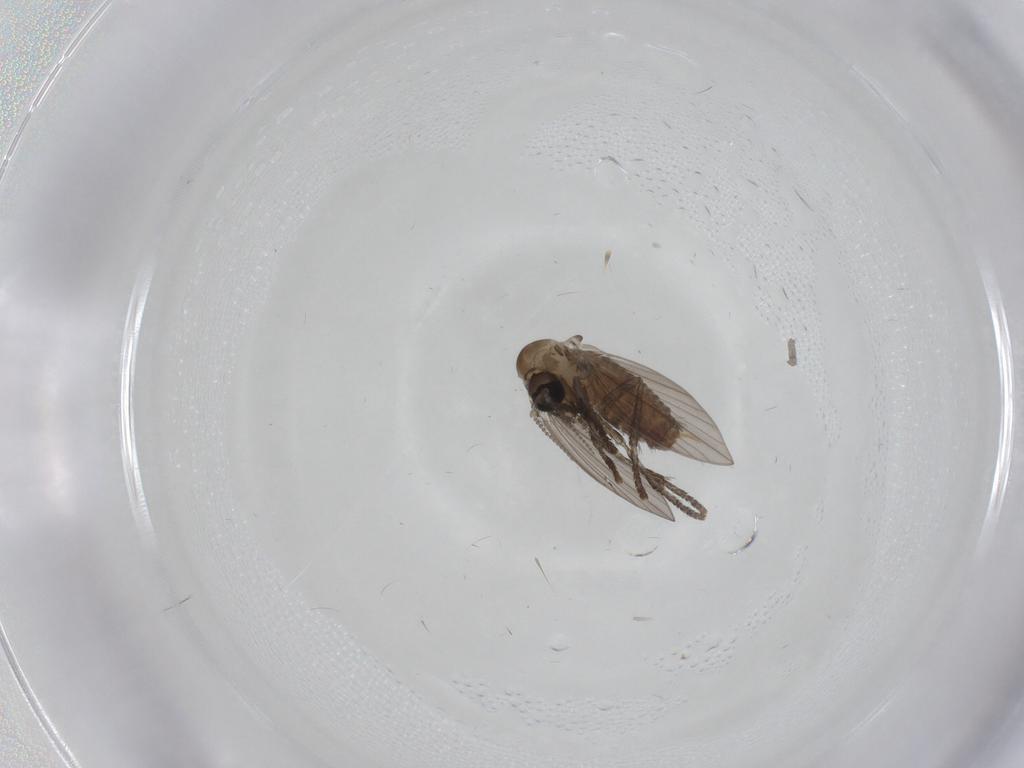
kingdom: Animalia
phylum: Arthropoda
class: Insecta
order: Diptera
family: Psychodidae
